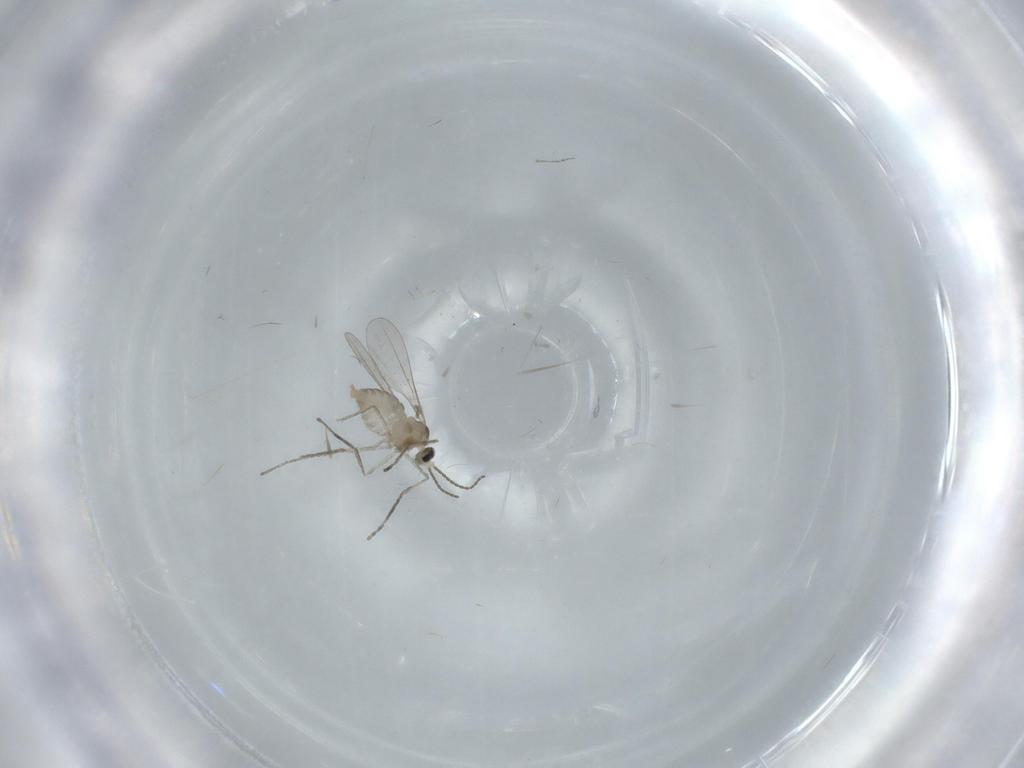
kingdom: Animalia
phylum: Arthropoda
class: Insecta
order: Diptera
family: Cecidomyiidae
